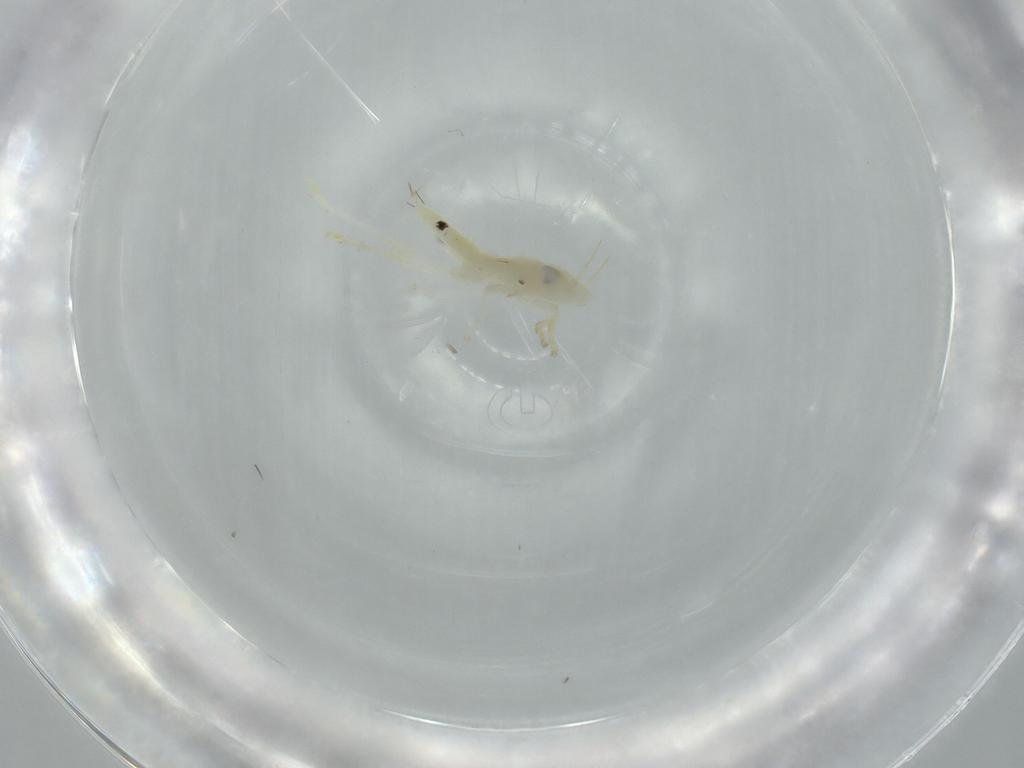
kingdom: Animalia
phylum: Arthropoda
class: Insecta
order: Hemiptera
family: Cicadellidae
